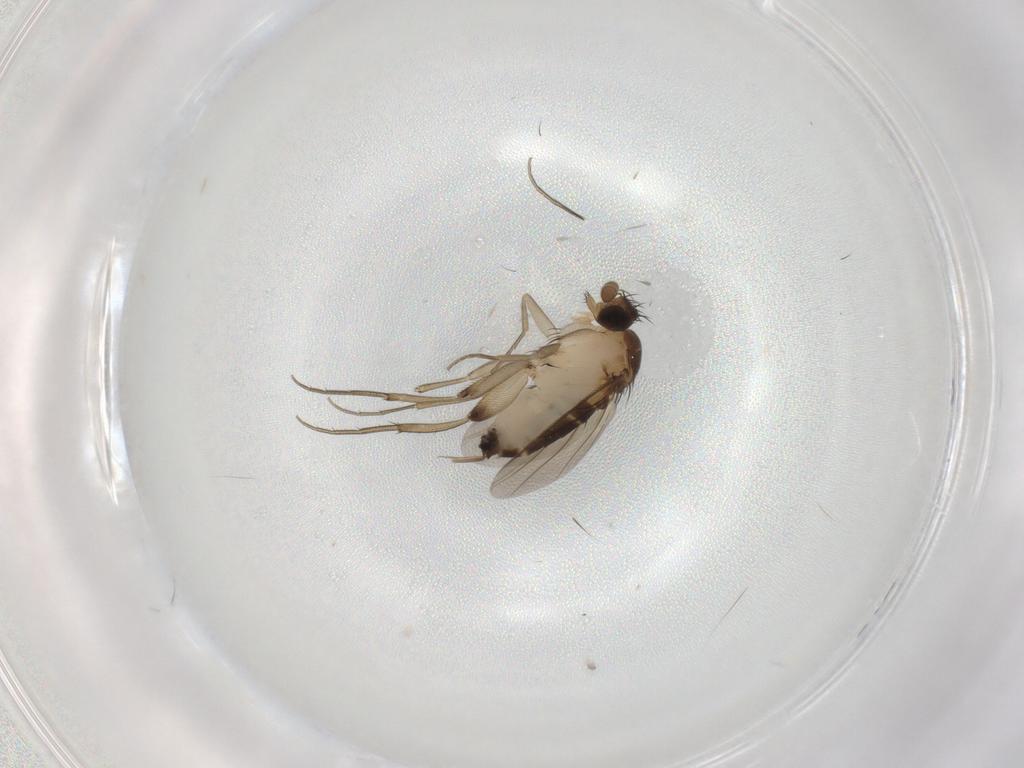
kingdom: Animalia
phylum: Arthropoda
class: Insecta
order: Diptera
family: Phoridae
